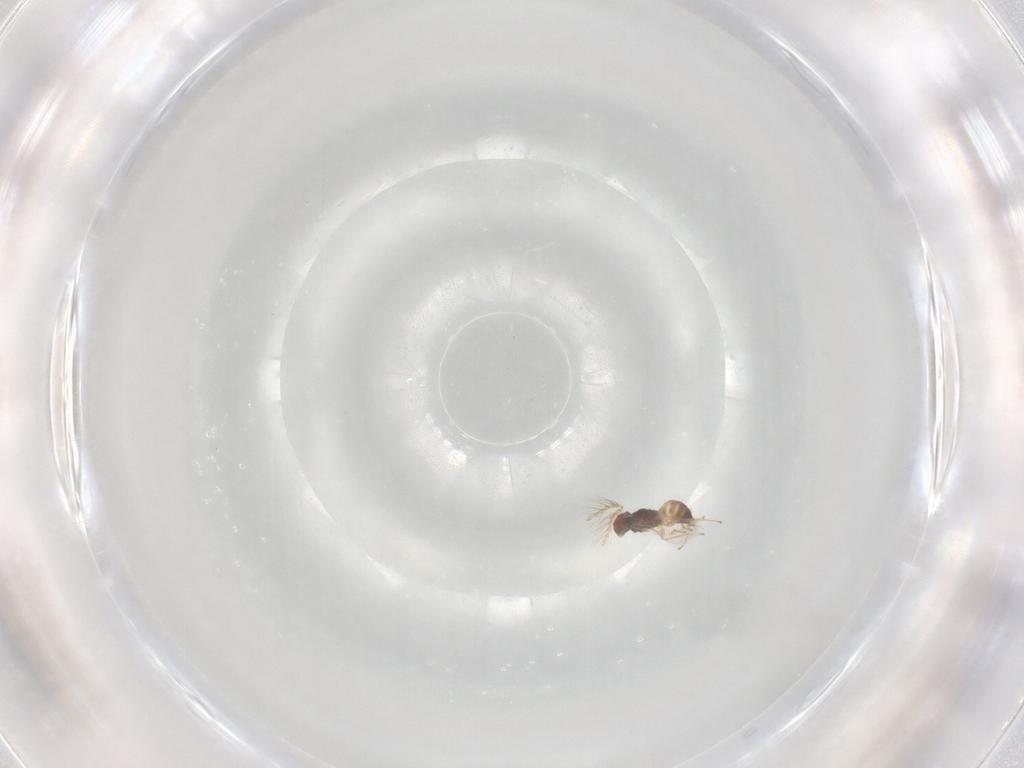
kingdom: Animalia
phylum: Arthropoda
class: Insecta
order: Hymenoptera
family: Eulophidae
